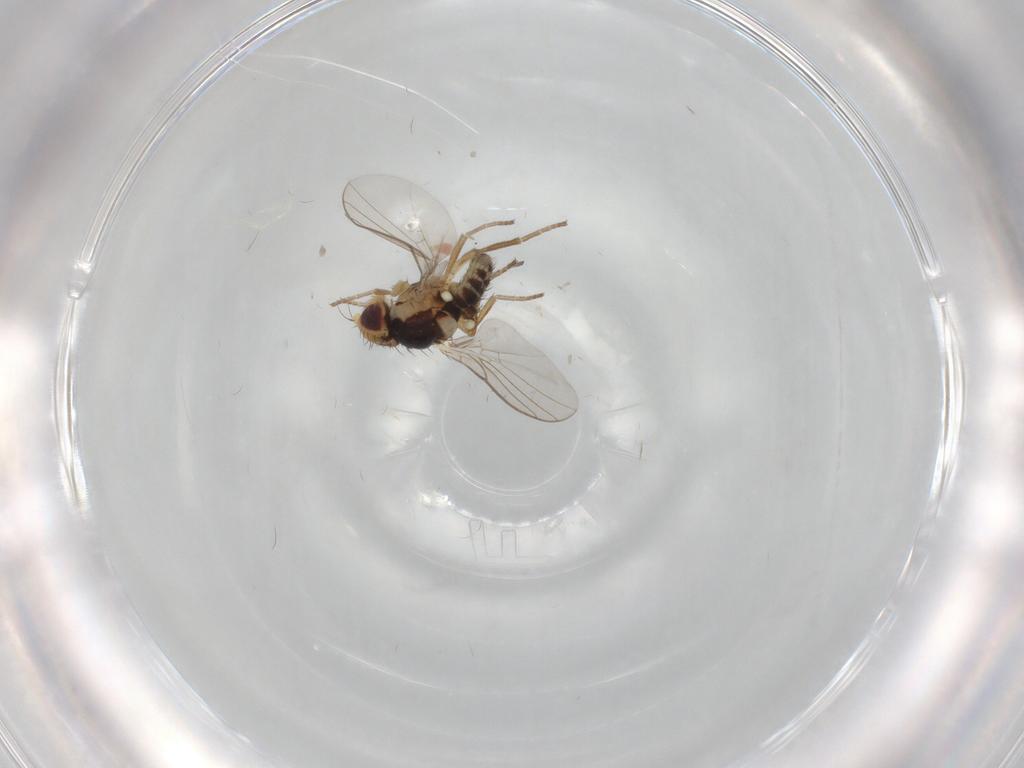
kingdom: Animalia
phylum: Arthropoda
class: Insecta
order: Diptera
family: Agromyzidae
